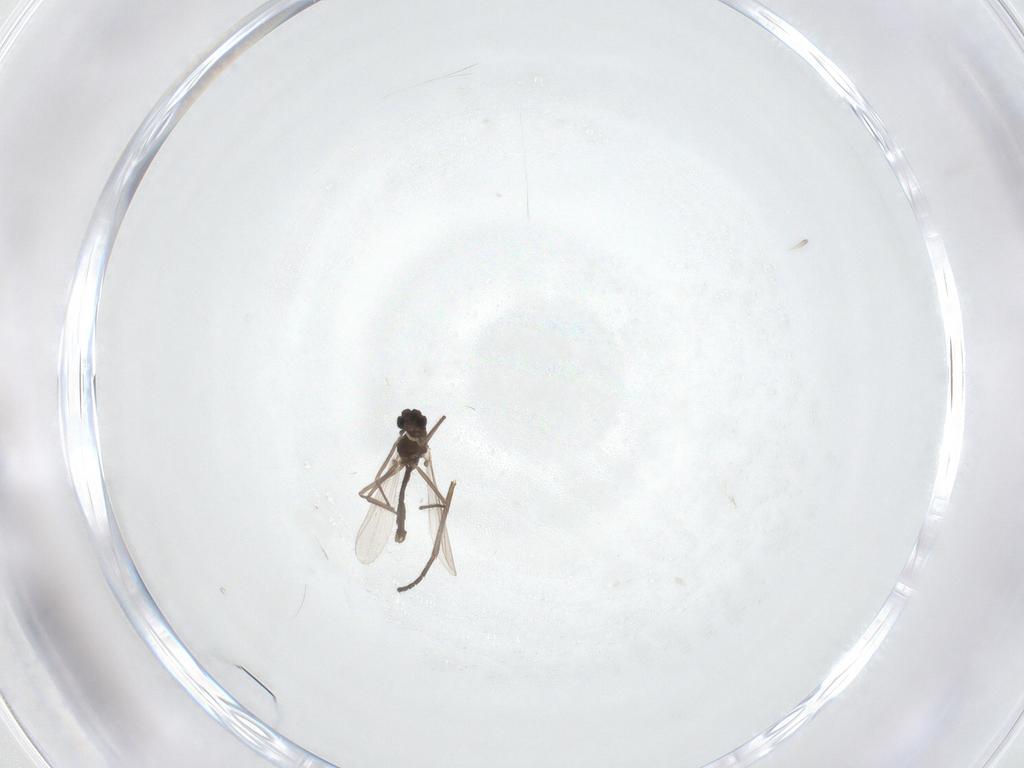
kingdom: Animalia
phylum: Arthropoda
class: Insecta
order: Diptera
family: Chironomidae
